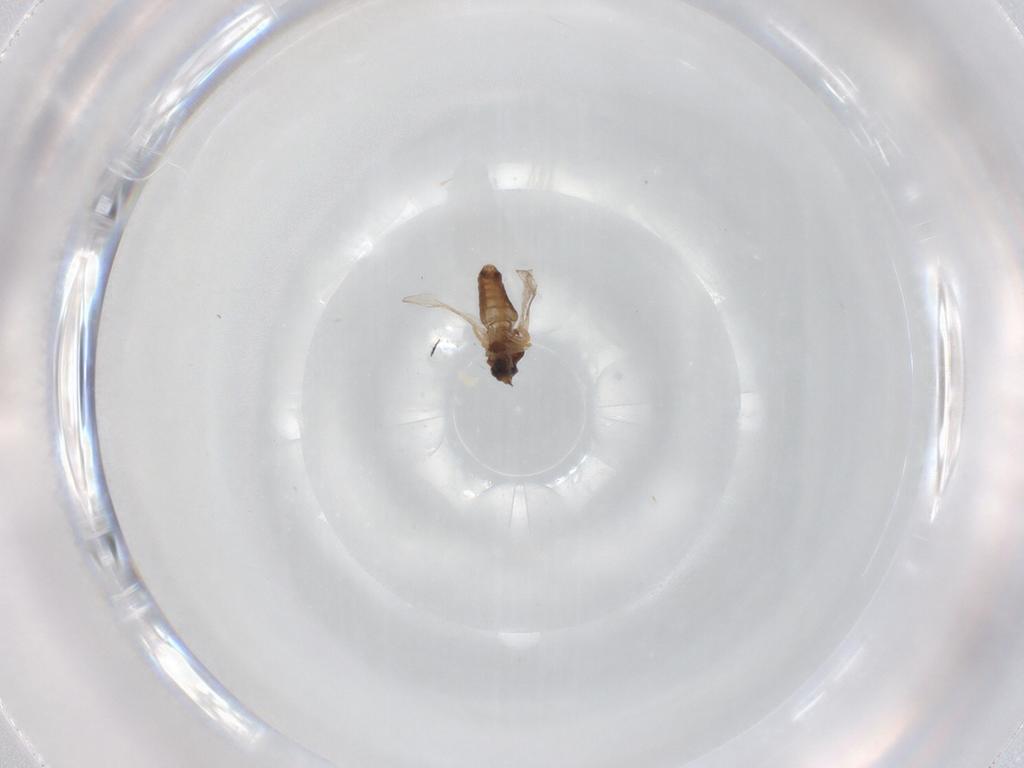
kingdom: Animalia
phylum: Arthropoda
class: Insecta
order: Diptera
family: Ceratopogonidae
